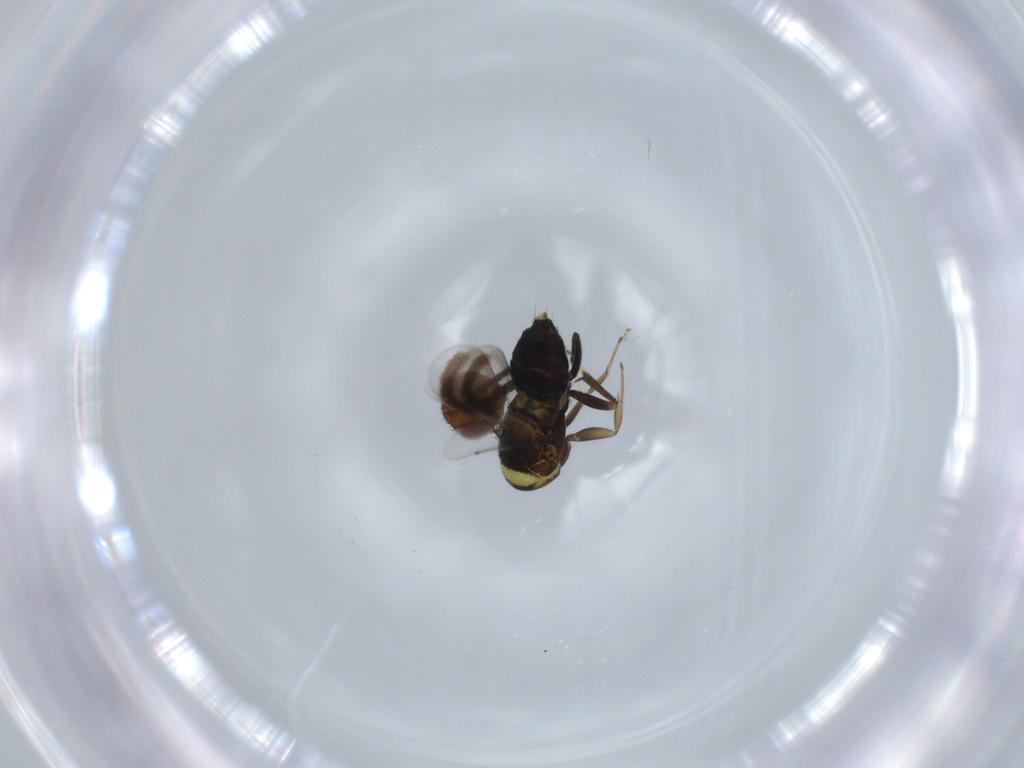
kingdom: Animalia
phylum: Arthropoda
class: Insecta
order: Hymenoptera
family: Aphelinidae
